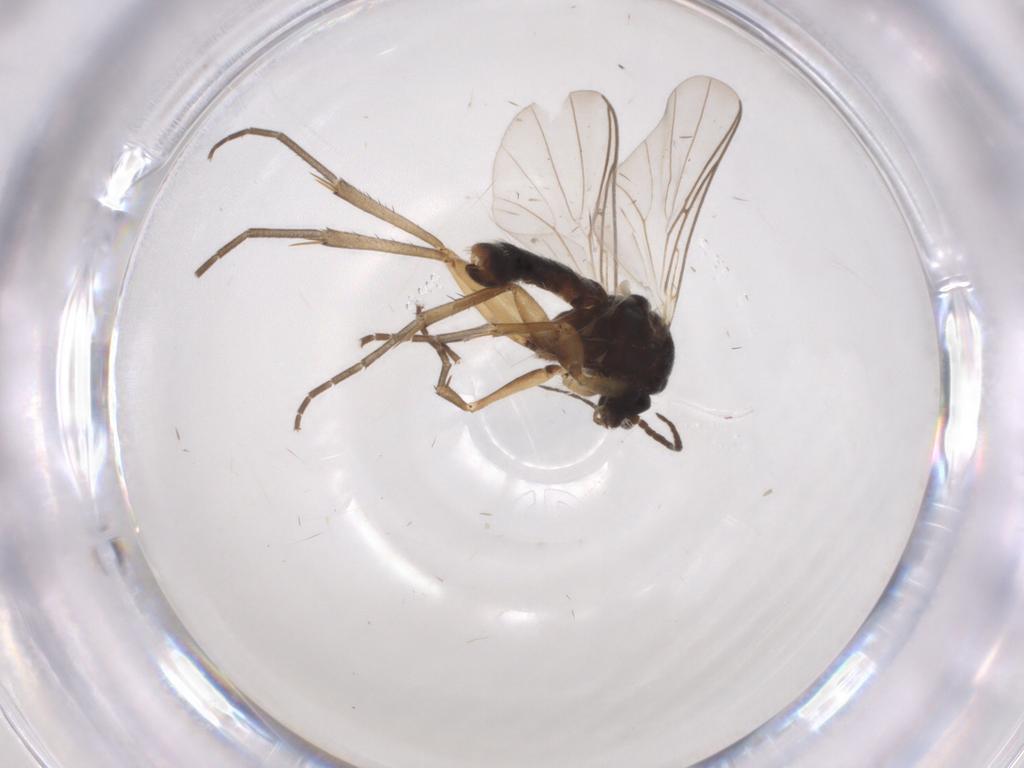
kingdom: Animalia
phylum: Arthropoda
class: Insecta
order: Diptera
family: Mycetophilidae
